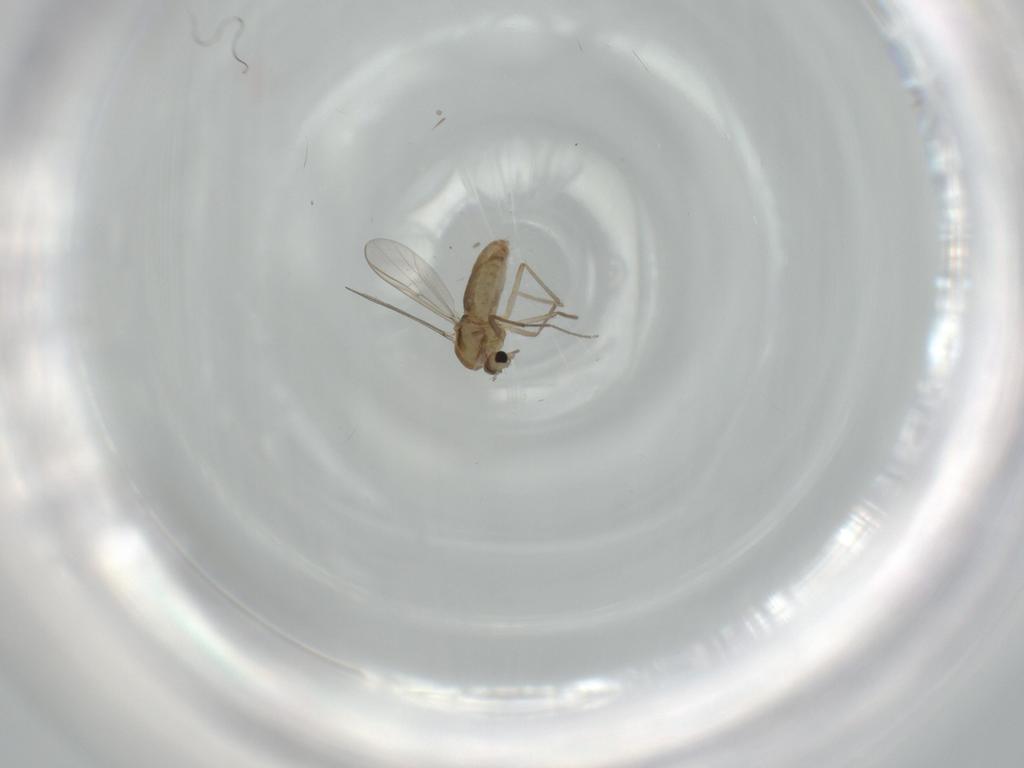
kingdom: Animalia
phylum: Arthropoda
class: Insecta
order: Diptera
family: Chironomidae
